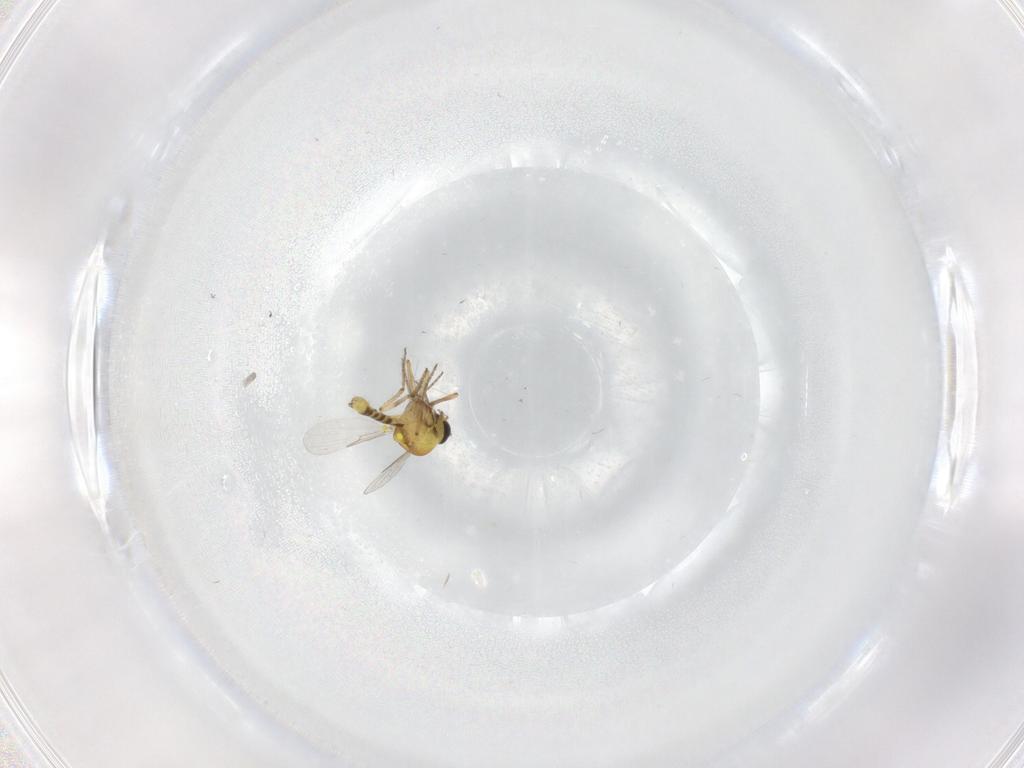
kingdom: Animalia
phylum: Arthropoda
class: Insecta
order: Diptera
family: Ceratopogonidae
